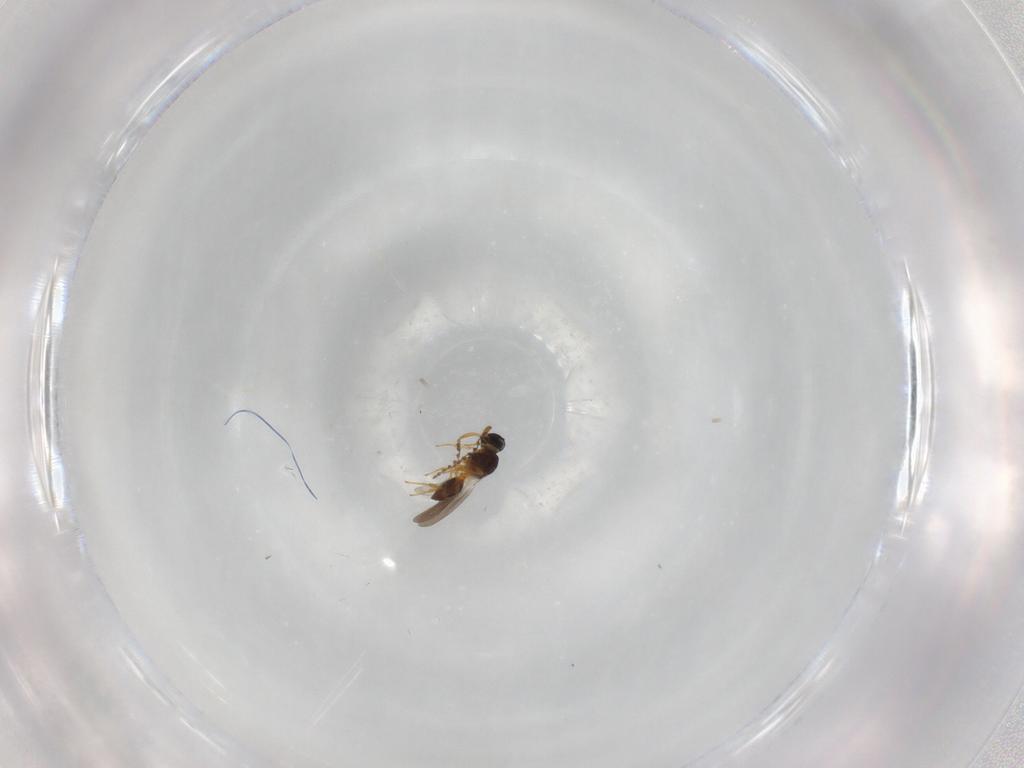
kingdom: Animalia
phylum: Arthropoda
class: Insecta
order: Hymenoptera
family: Platygastridae
